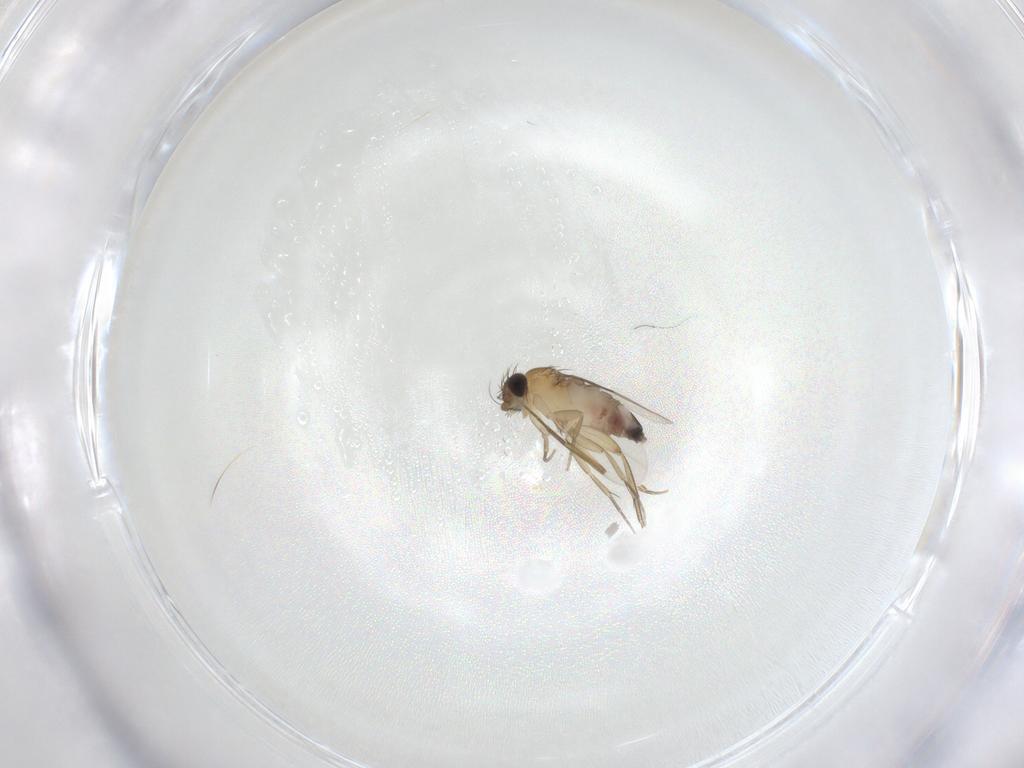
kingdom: Animalia
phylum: Arthropoda
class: Insecta
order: Diptera
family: Phoridae
